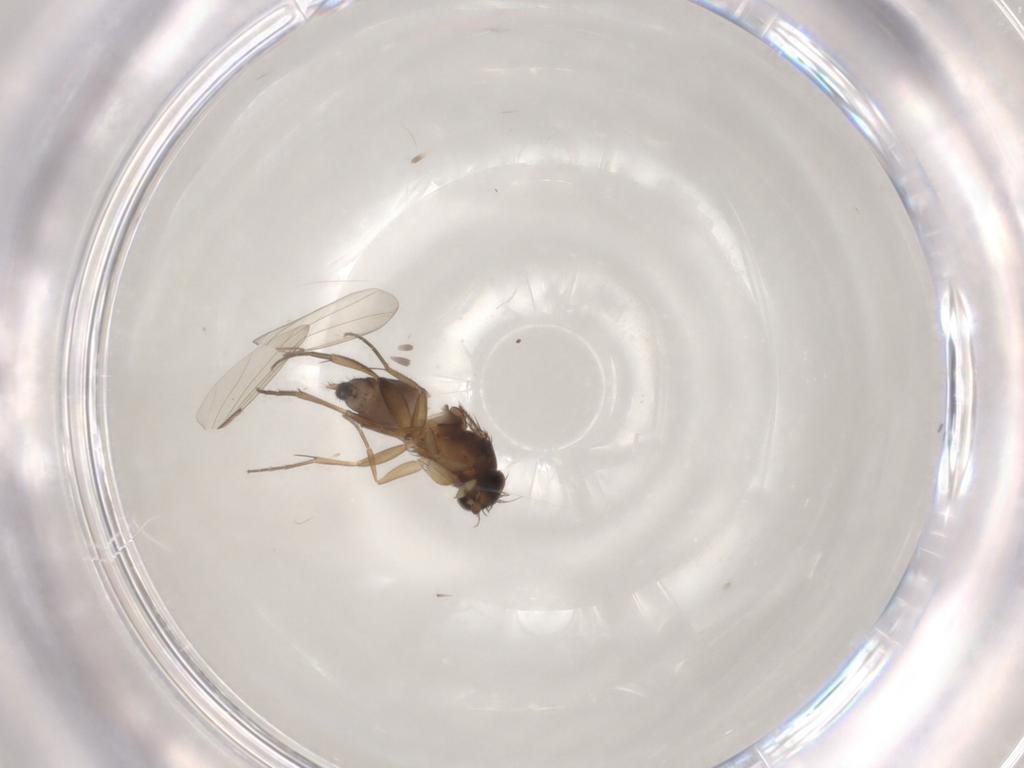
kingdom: Animalia
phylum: Arthropoda
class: Insecta
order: Diptera
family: Phoridae
